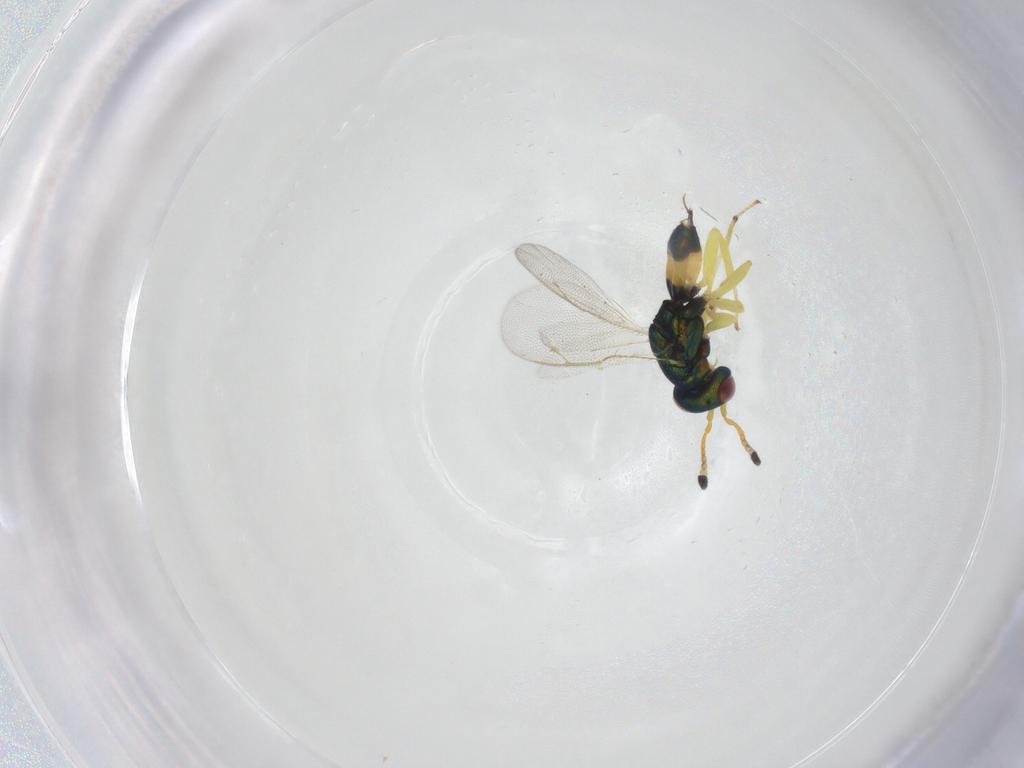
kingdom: Animalia
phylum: Arthropoda
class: Insecta
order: Hymenoptera
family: Pteromalidae
